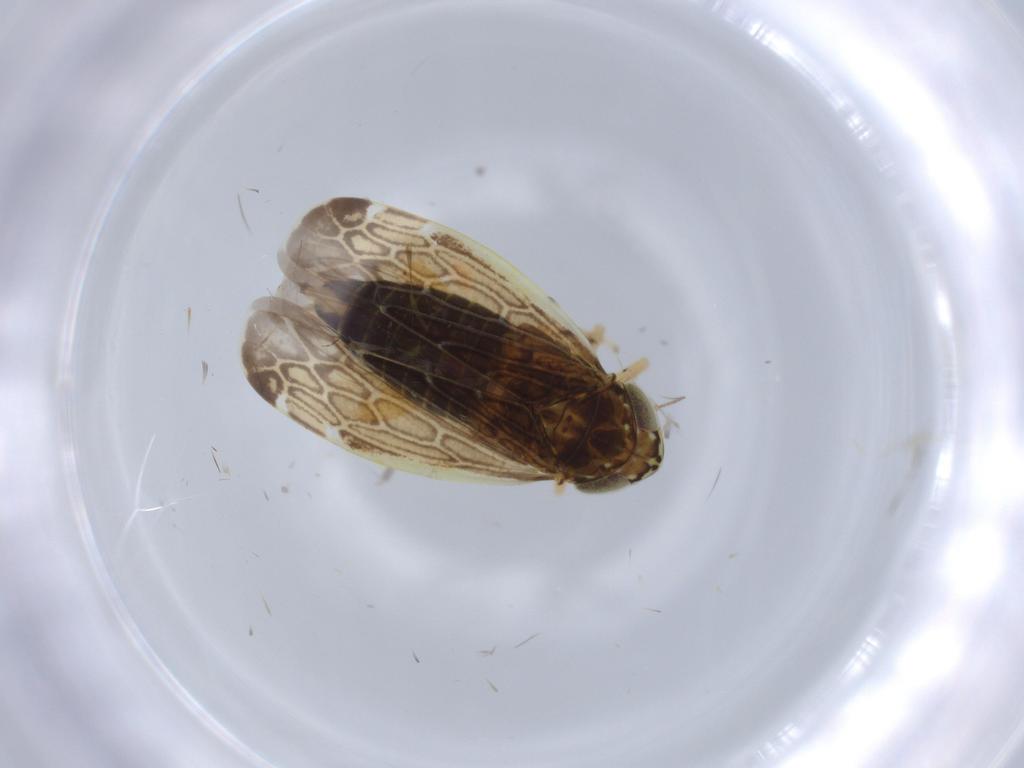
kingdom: Animalia
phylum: Arthropoda
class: Insecta
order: Hemiptera
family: Cicadellidae
